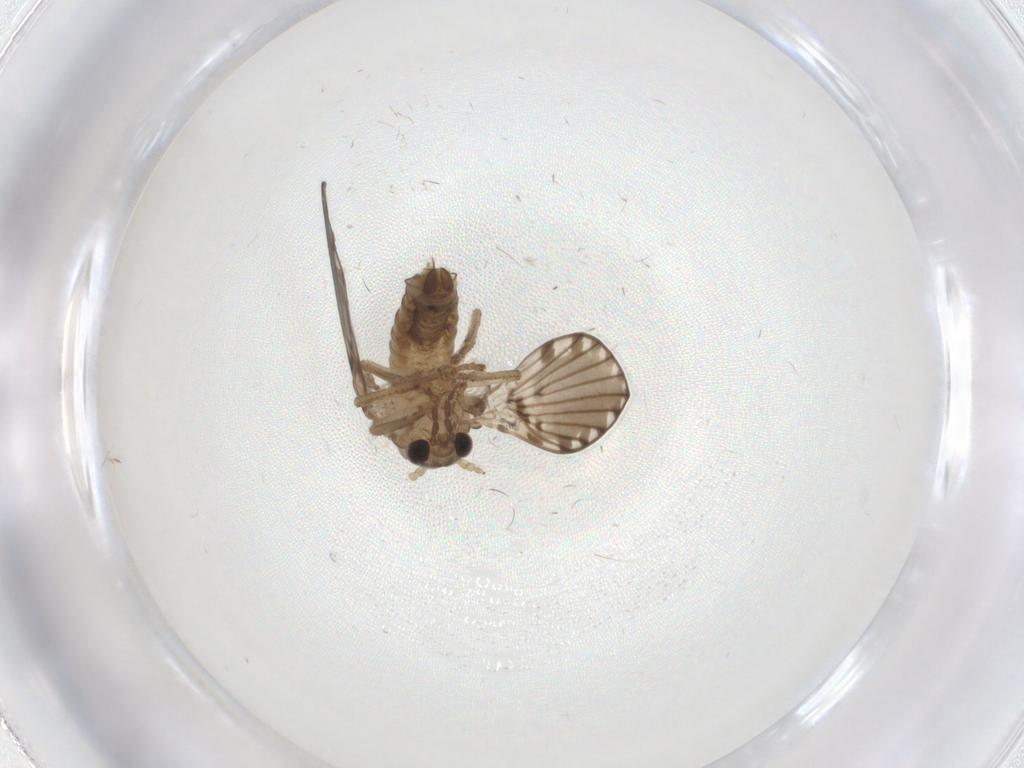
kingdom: Animalia
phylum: Arthropoda
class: Insecta
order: Diptera
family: Psychodidae
